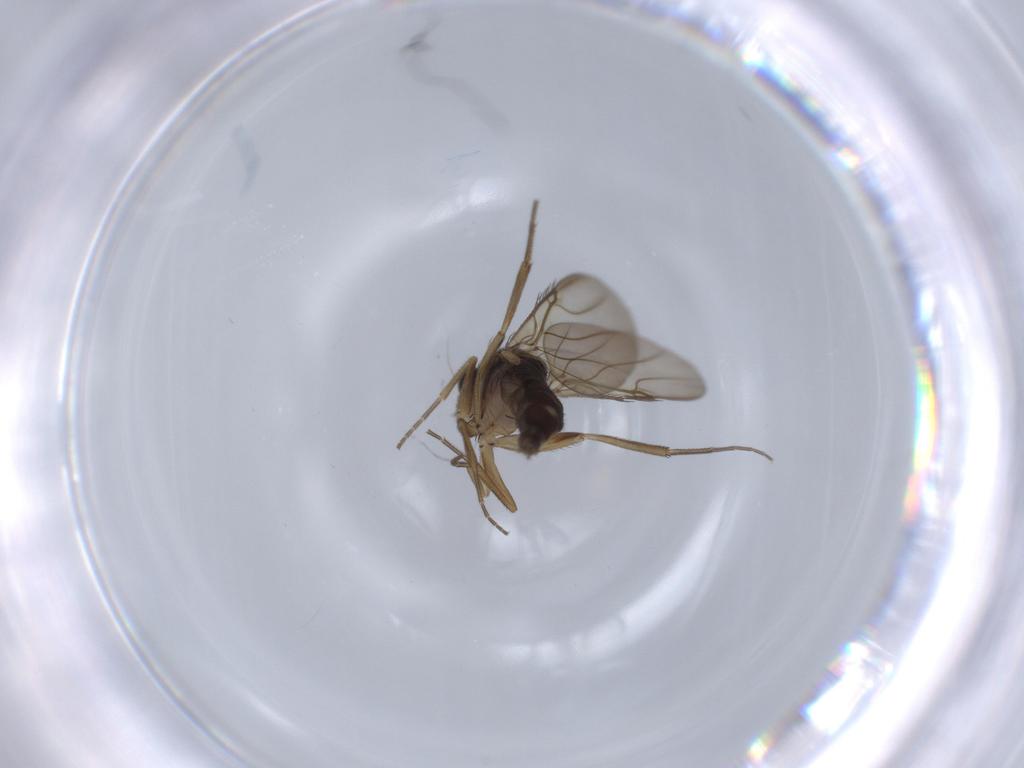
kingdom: Animalia
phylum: Arthropoda
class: Insecta
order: Diptera
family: Phoridae
